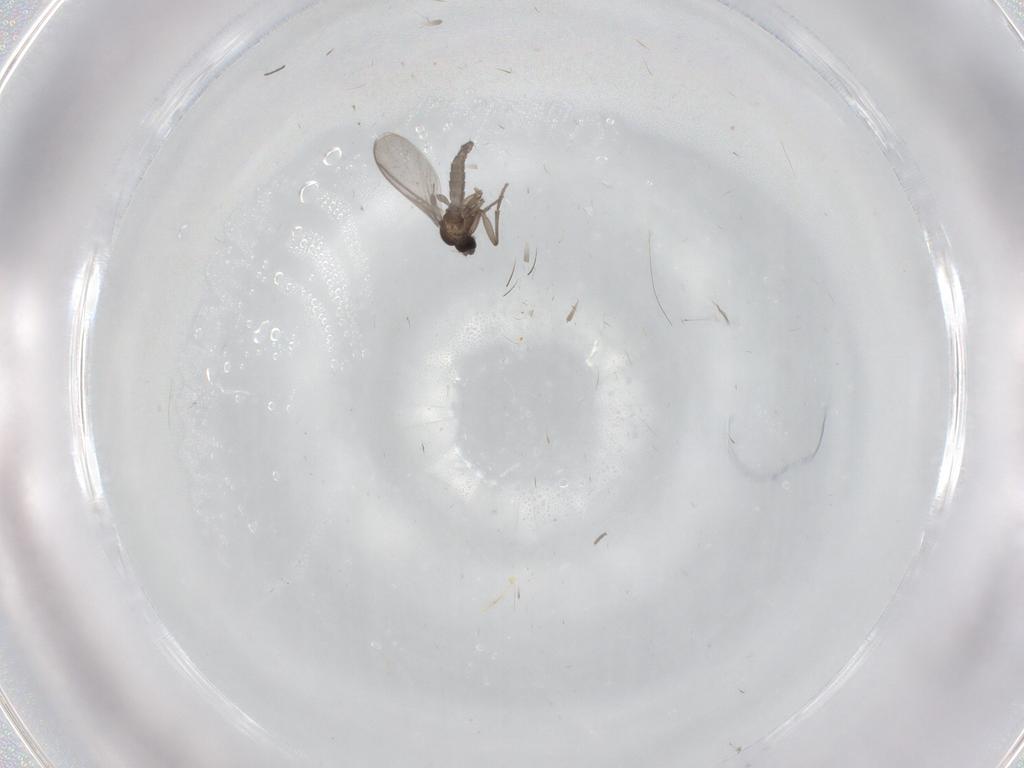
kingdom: Animalia
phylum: Arthropoda
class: Insecta
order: Diptera
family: Sciaridae
